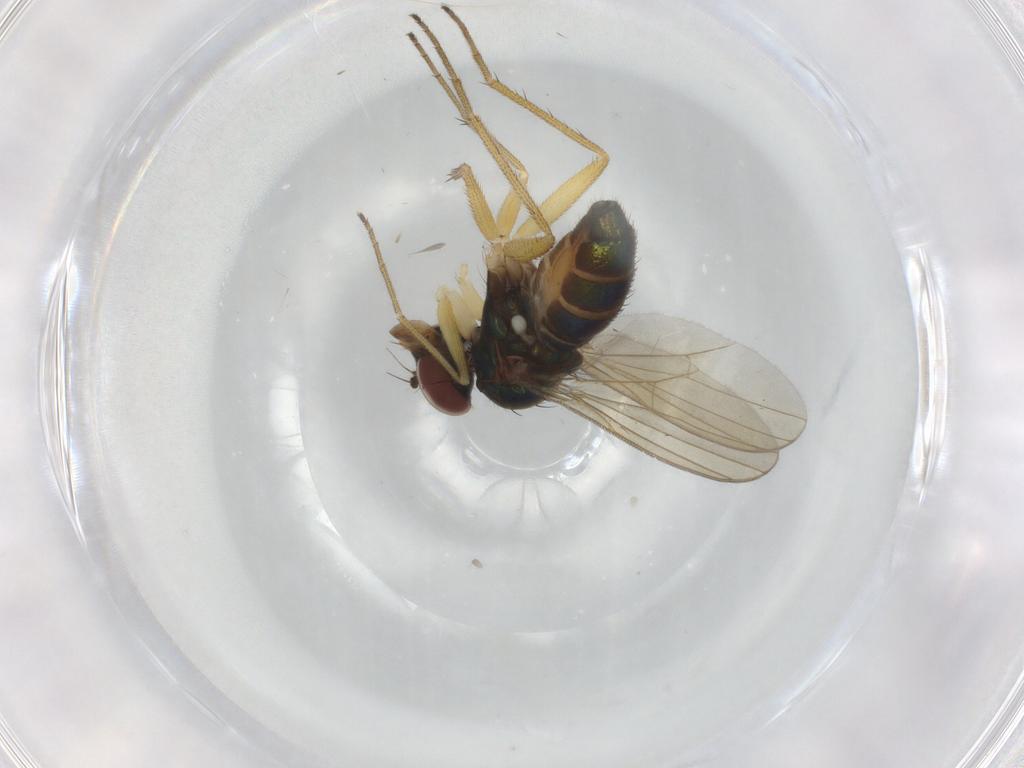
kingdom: Animalia
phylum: Arthropoda
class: Insecta
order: Diptera
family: Dolichopodidae
